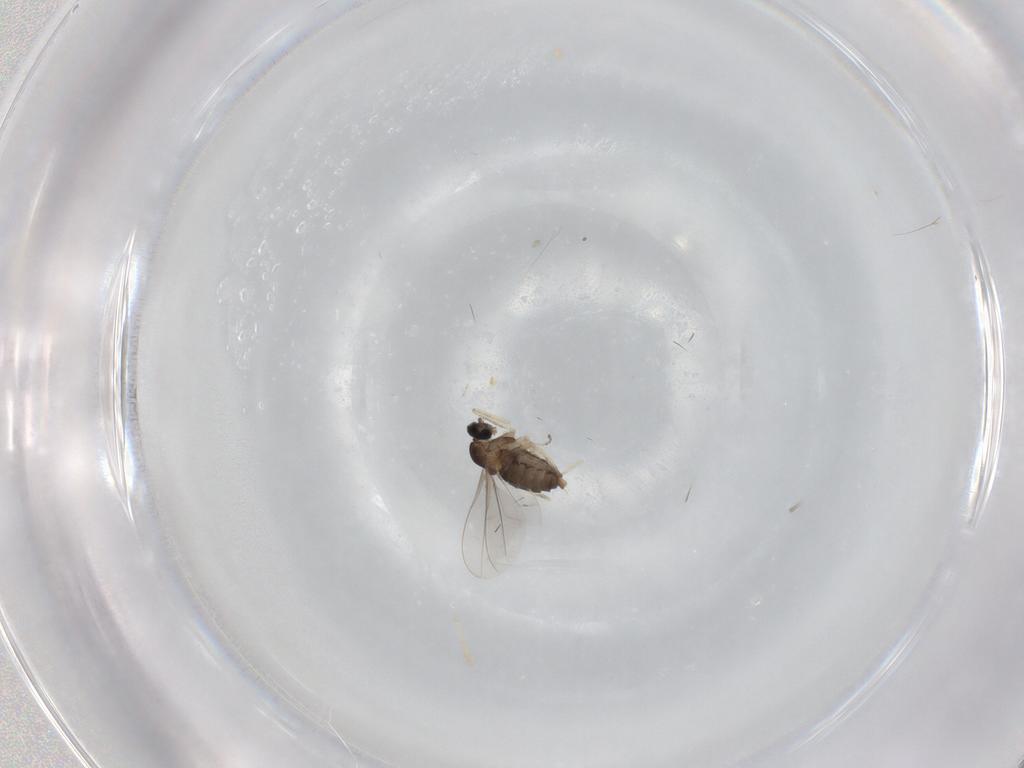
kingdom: Animalia
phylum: Arthropoda
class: Insecta
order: Diptera
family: Cecidomyiidae
